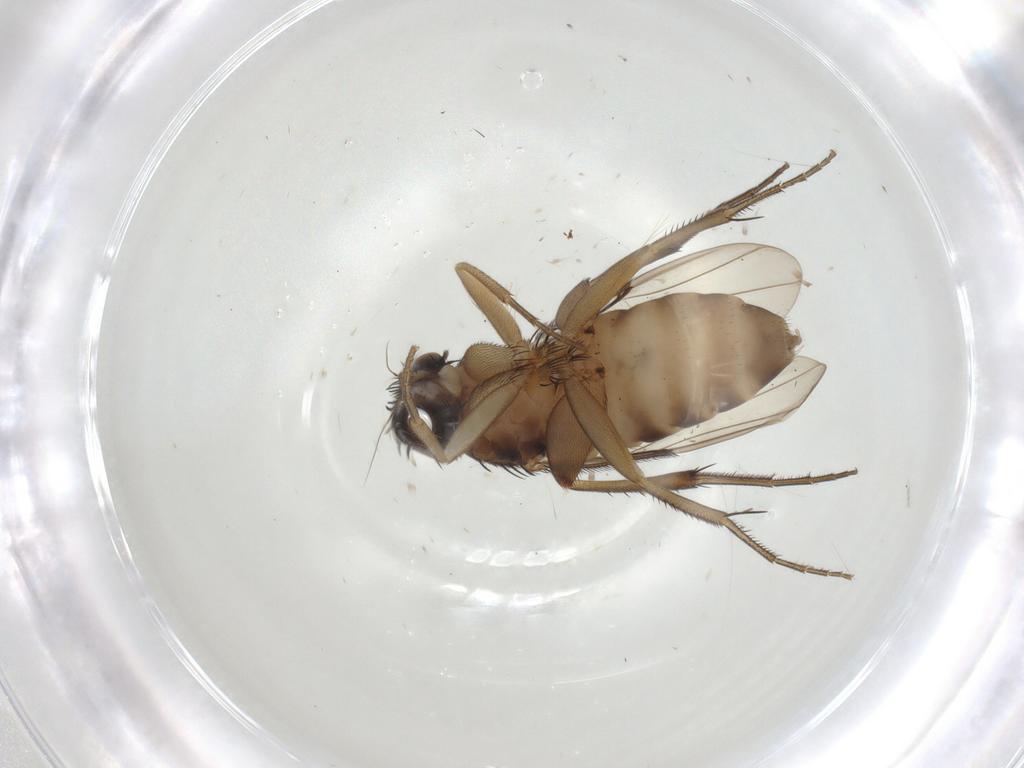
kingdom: Animalia
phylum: Arthropoda
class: Insecta
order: Diptera
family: Phoridae
